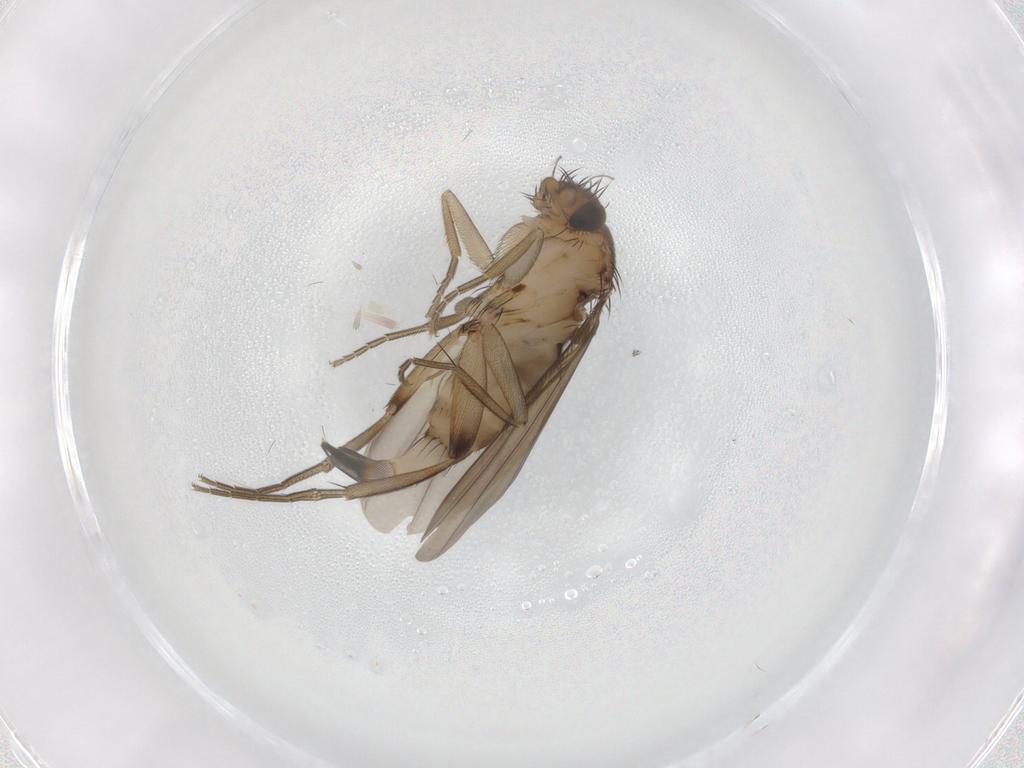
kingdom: Animalia
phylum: Arthropoda
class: Insecta
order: Diptera
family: Phoridae
